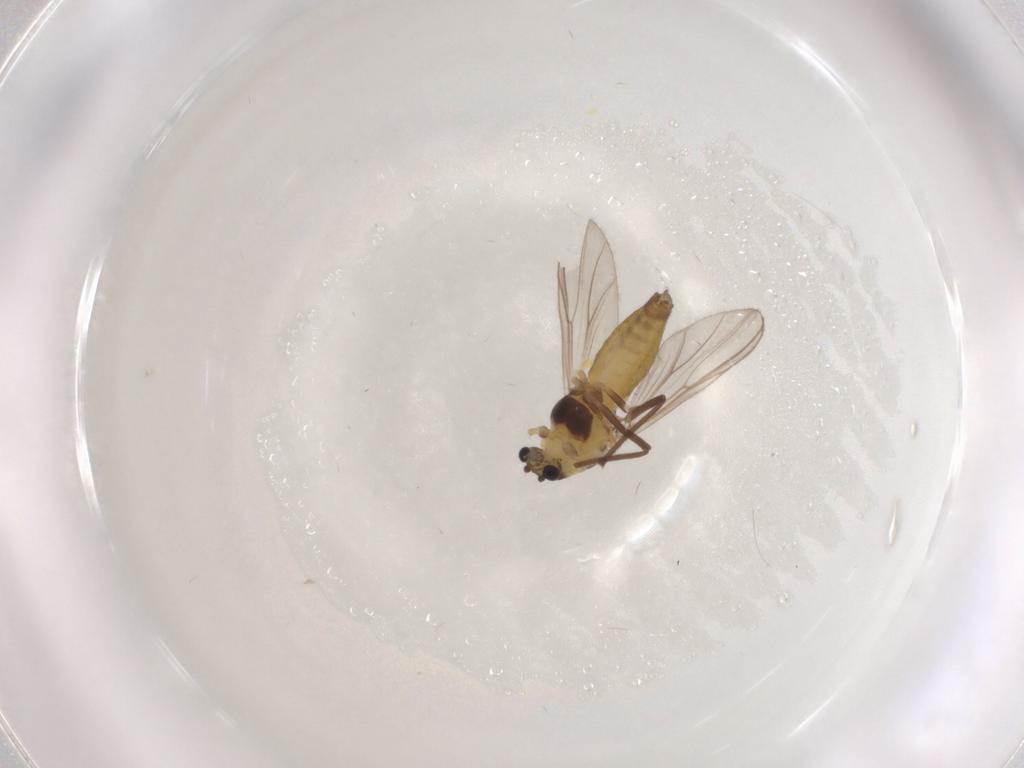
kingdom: Animalia
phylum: Arthropoda
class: Insecta
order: Diptera
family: Chironomidae
